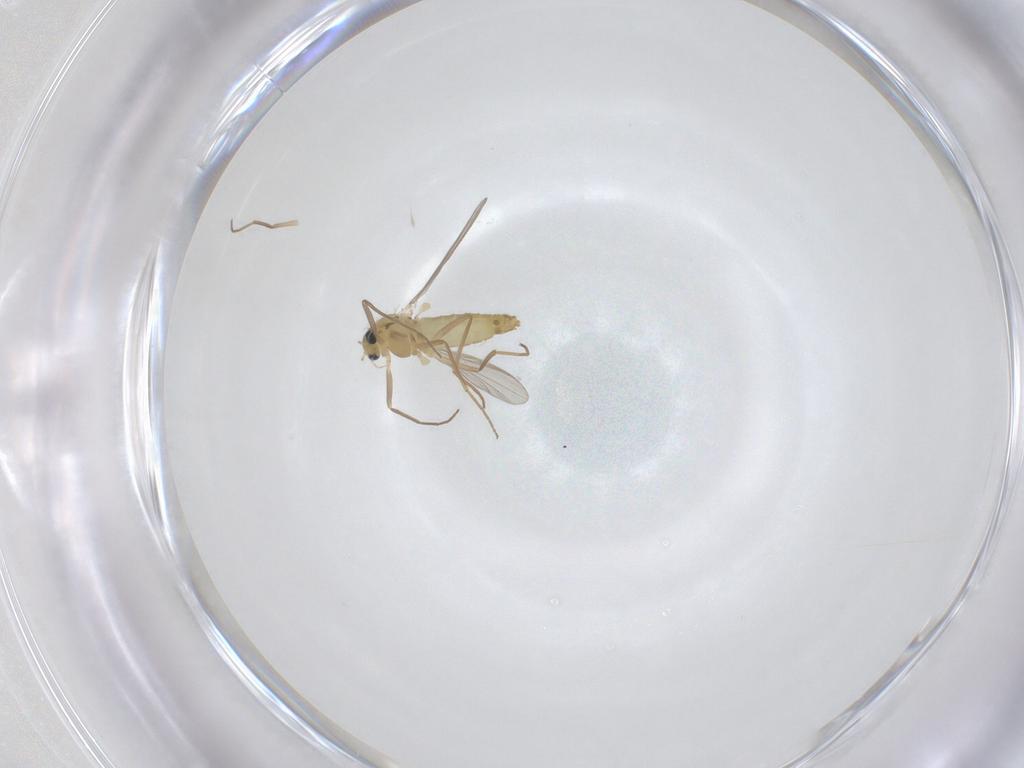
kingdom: Animalia
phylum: Arthropoda
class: Insecta
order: Diptera
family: Chironomidae
